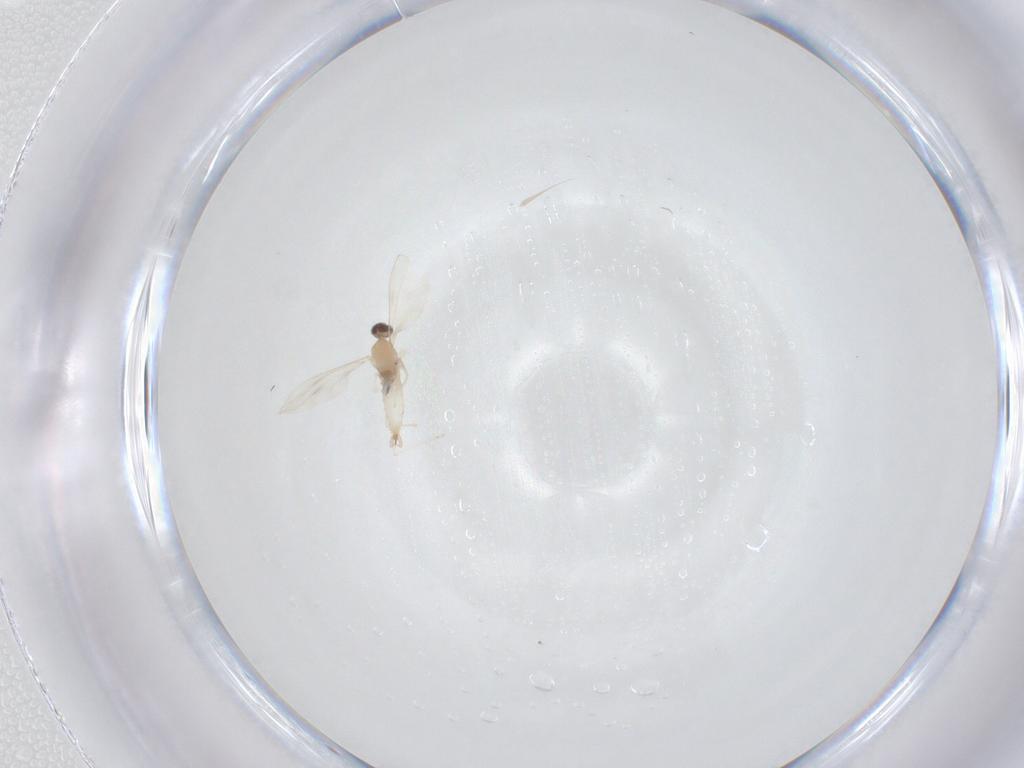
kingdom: Animalia
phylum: Arthropoda
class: Insecta
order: Diptera
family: Cecidomyiidae
